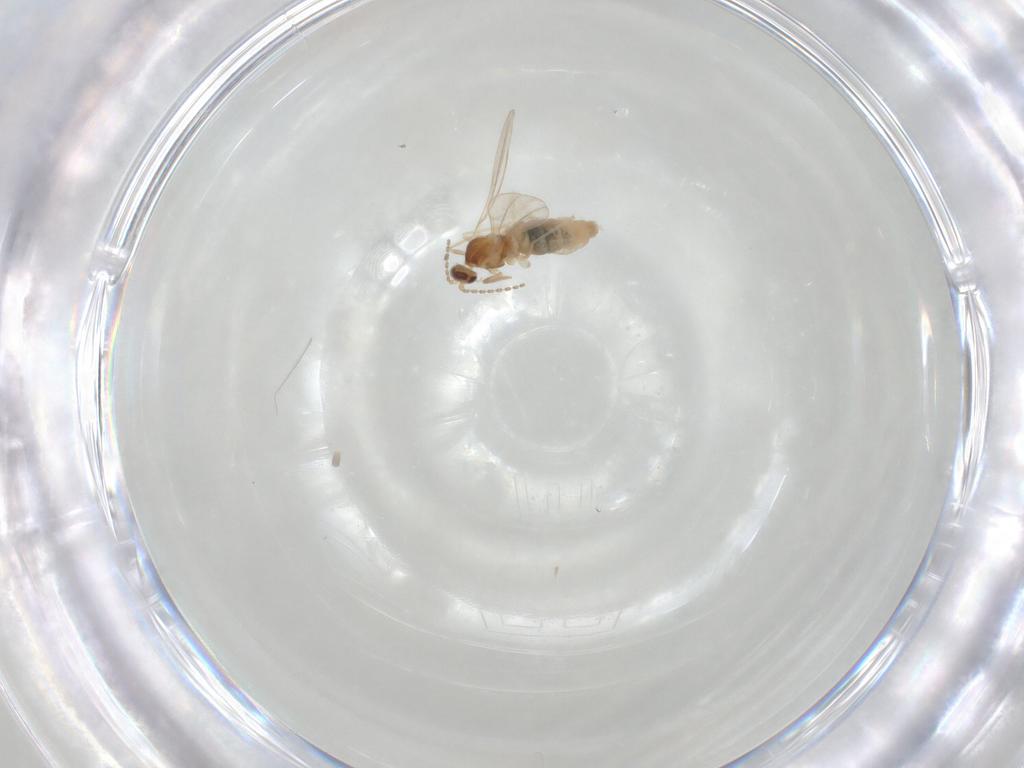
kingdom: Animalia
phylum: Arthropoda
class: Insecta
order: Diptera
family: Cecidomyiidae
